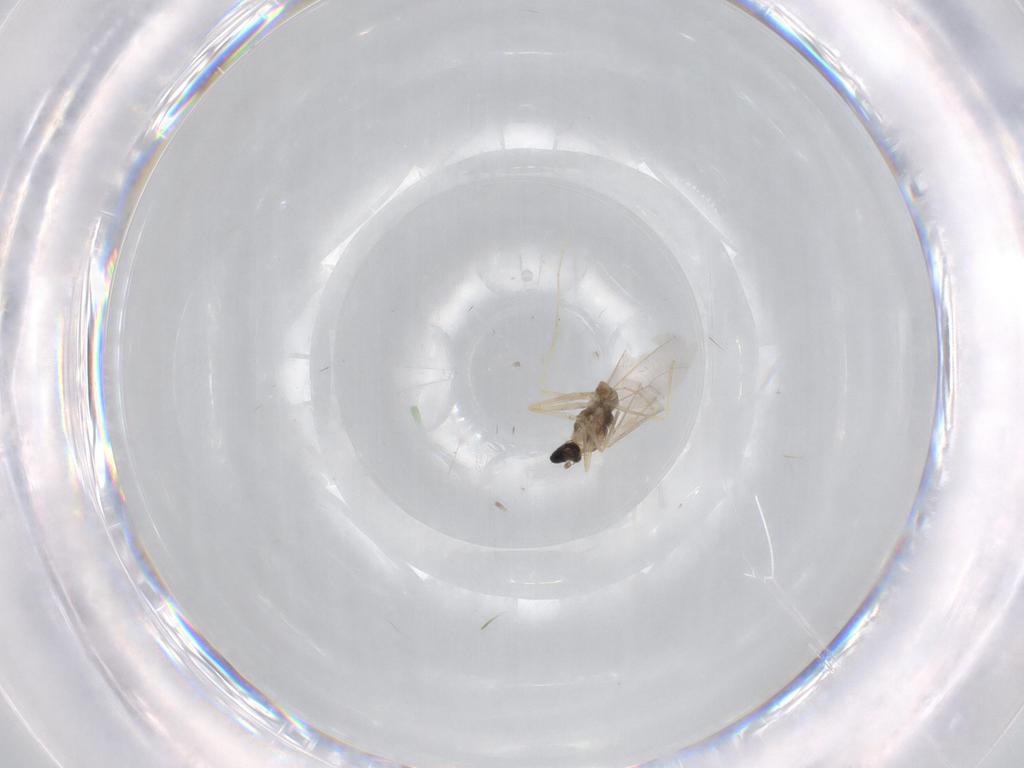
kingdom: Animalia
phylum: Arthropoda
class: Insecta
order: Diptera
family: Cecidomyiidae
